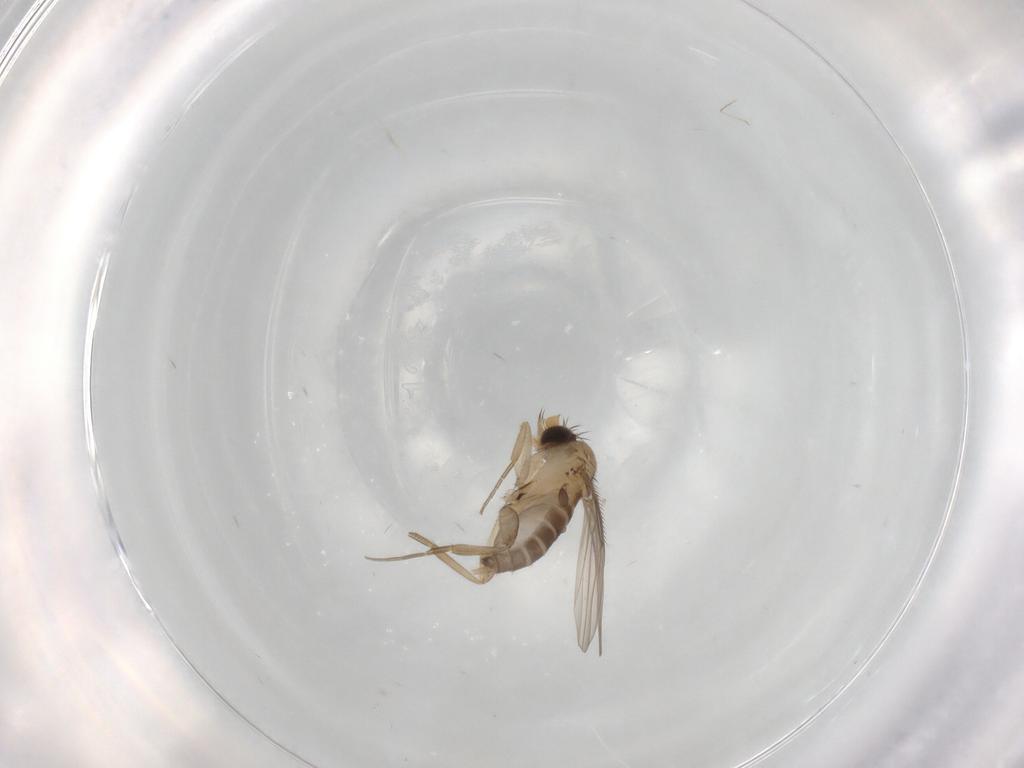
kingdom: Animalia
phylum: Arthropoda
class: Insecta
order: Diptera
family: Phoridae
